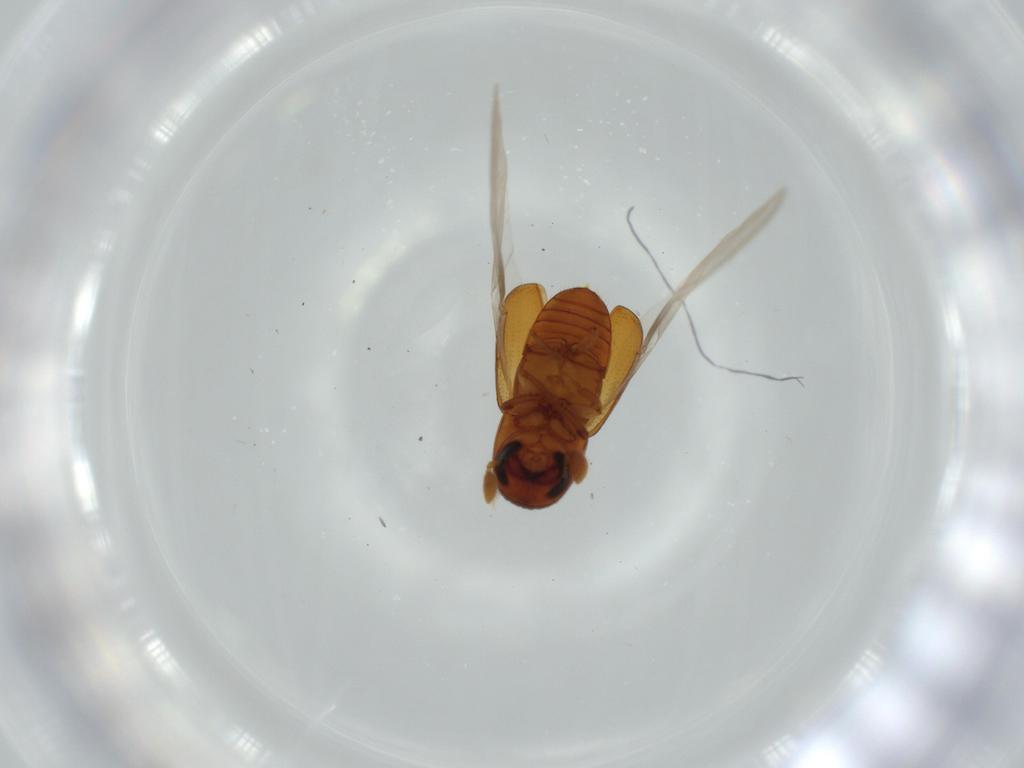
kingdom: Animalia
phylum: Arthropoda
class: Insecta
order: Coleoptera
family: Curculionidae
